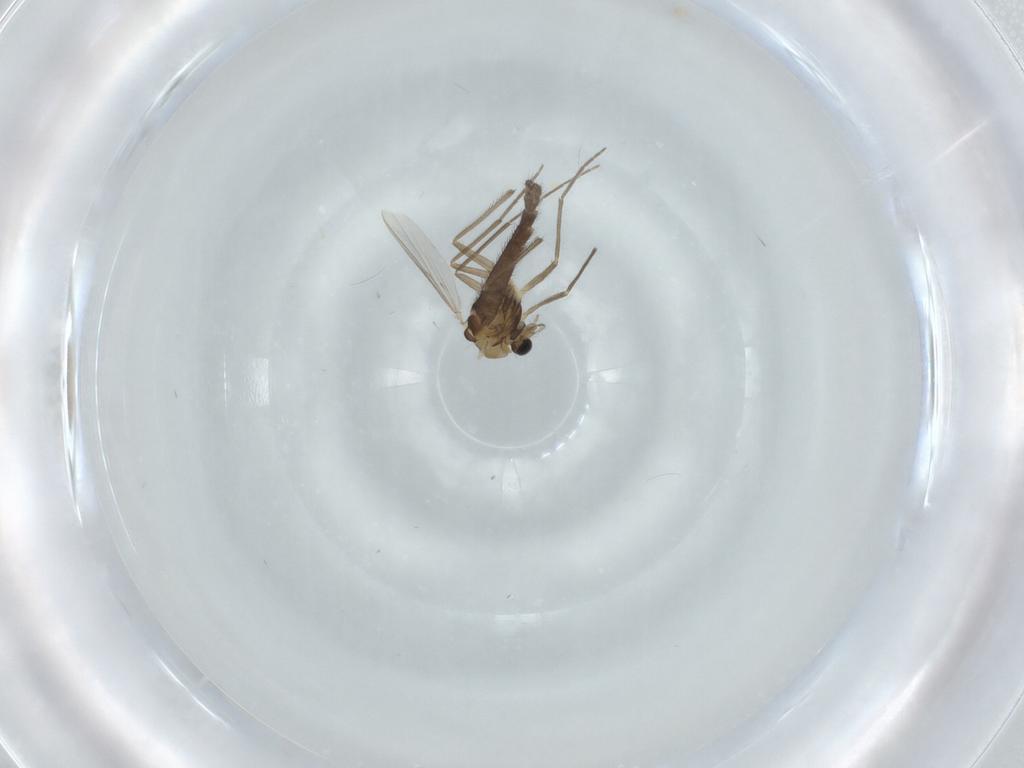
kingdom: Animalia
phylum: Arthropoda
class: Insecta
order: Diptera
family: Chironomidae
